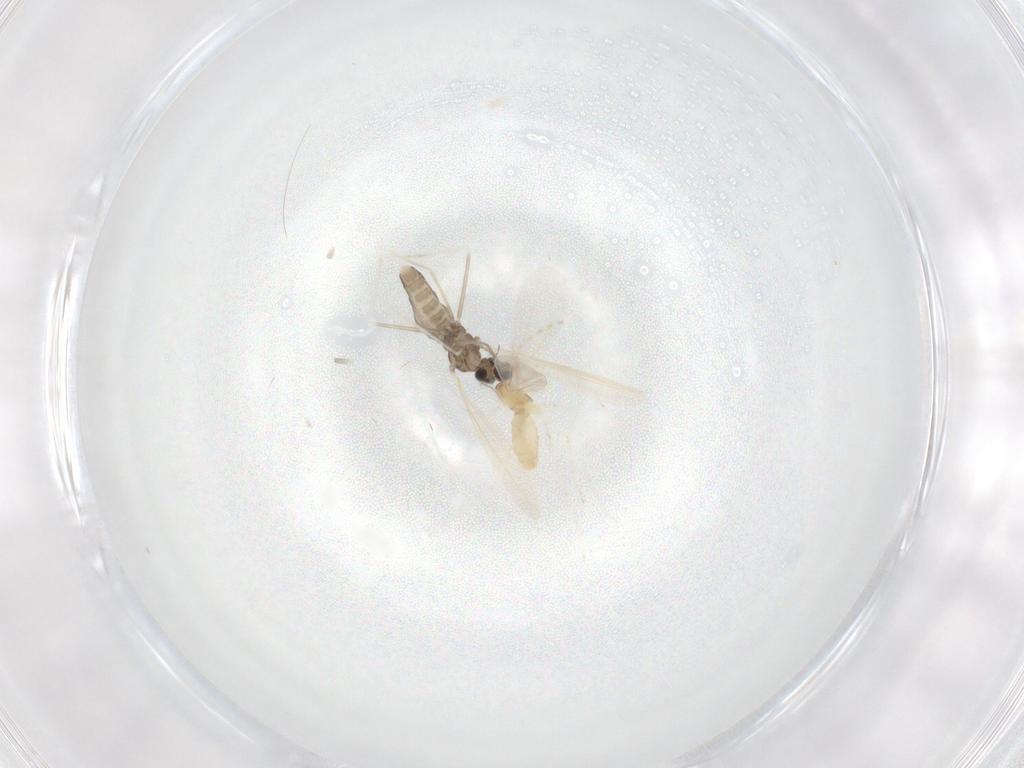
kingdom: Animalia
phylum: Arthropoda
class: Insecta
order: Diptera
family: Cecidomyiidae
